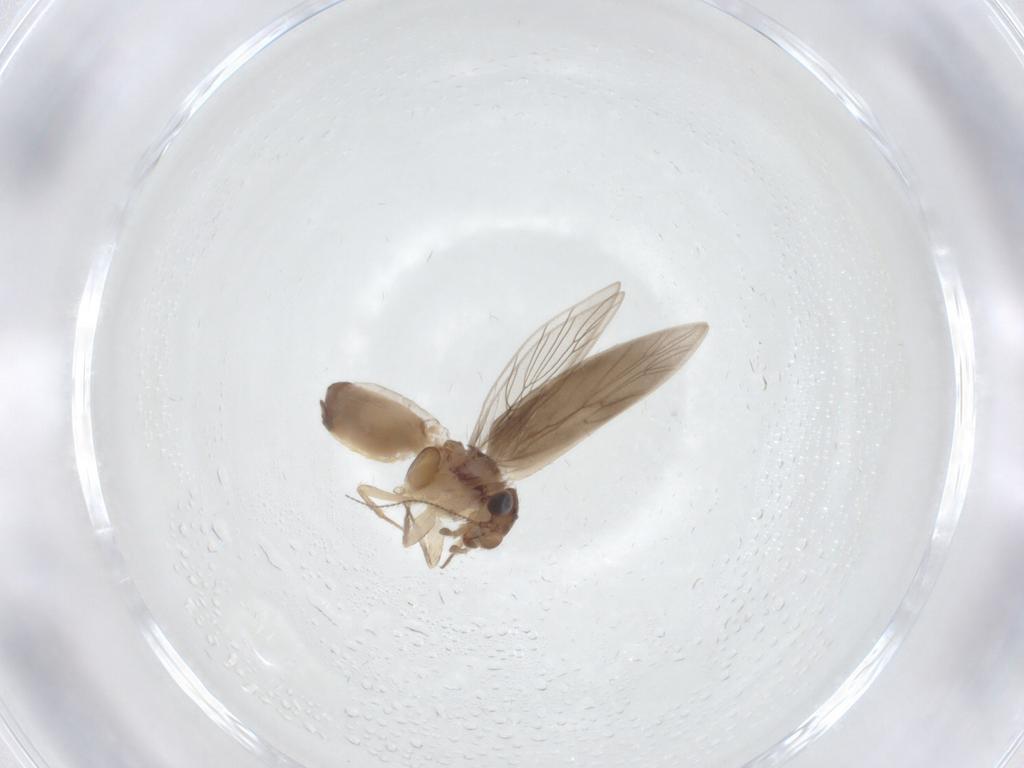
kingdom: Animalia
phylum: Arthropoda
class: Insecta
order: Psocodea
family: Lepidopsocidae
